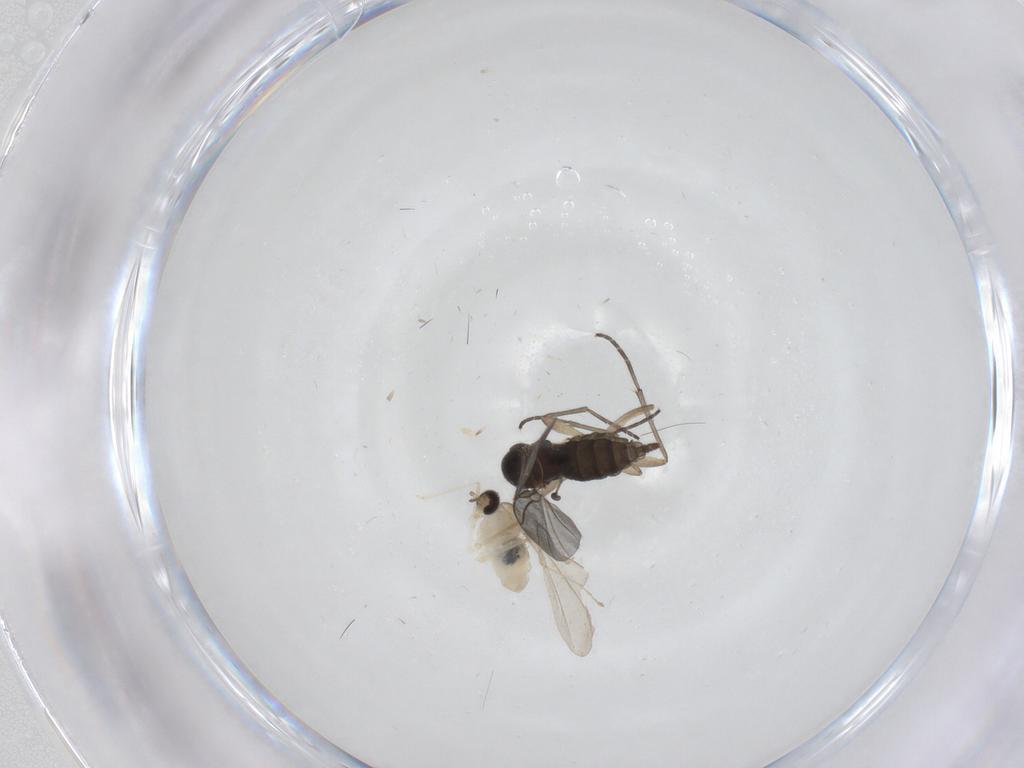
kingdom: Animalia
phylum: Arthropoda
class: Insecta
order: Diptera
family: Sciaridae
